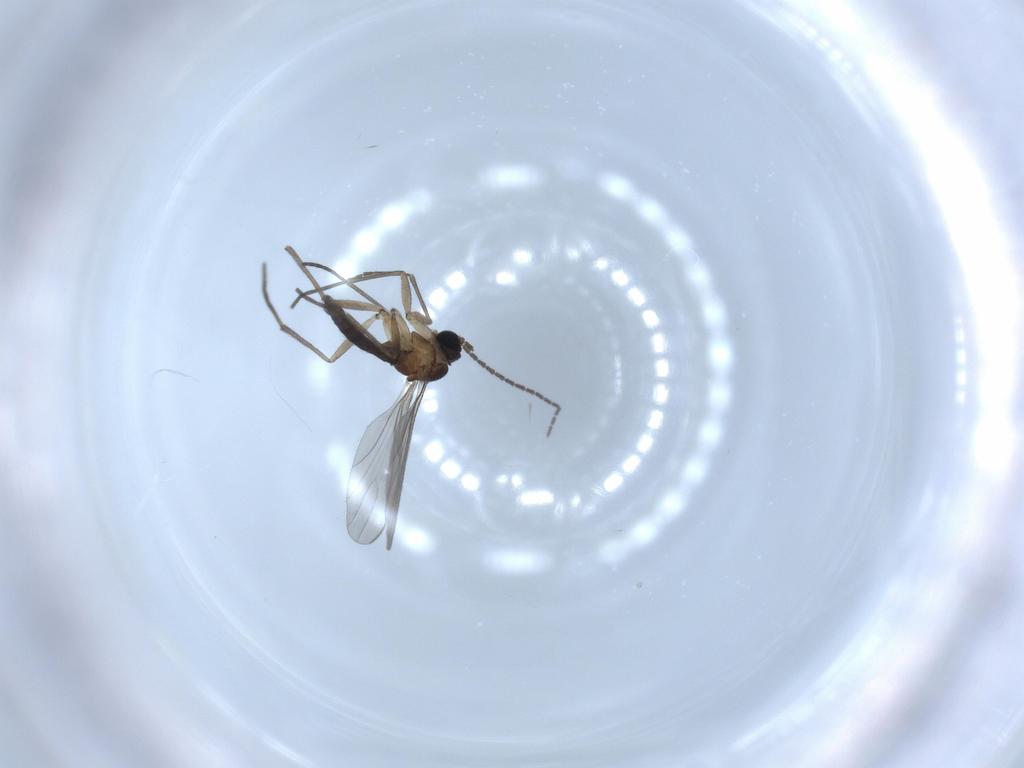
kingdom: Animalia
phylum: Arthropoda
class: Insecta
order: Diptera
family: Sciaridae
